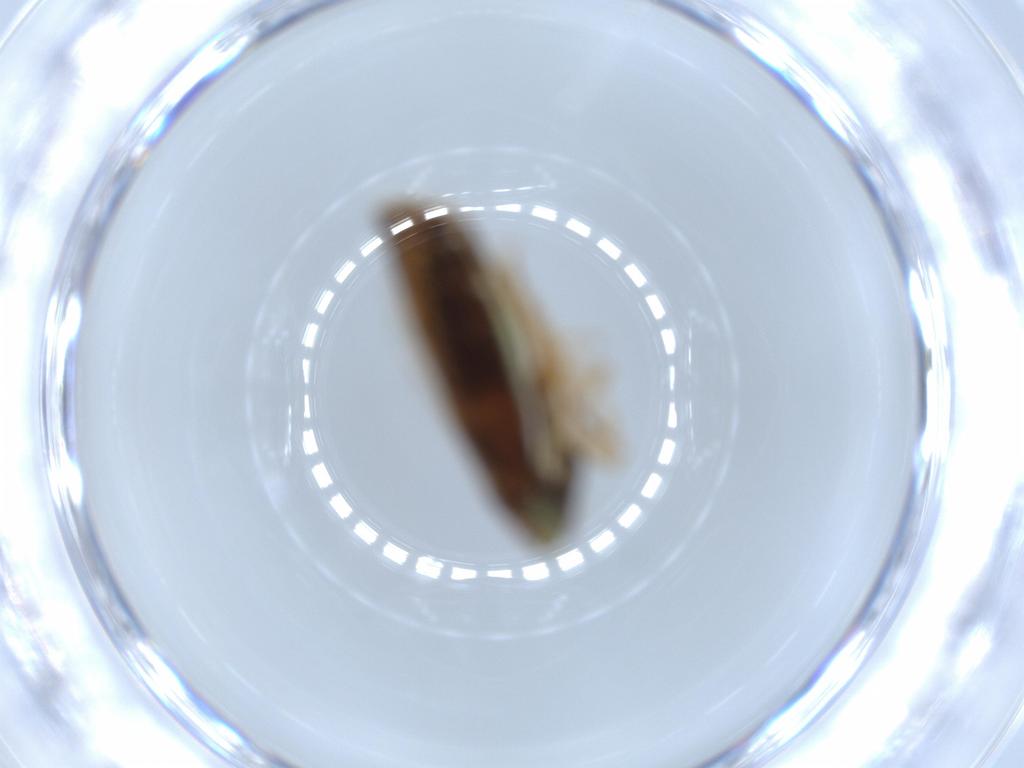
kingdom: Animalia
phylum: Arthropoda
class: Insecta
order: Hemiptera
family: Cicadellidae
